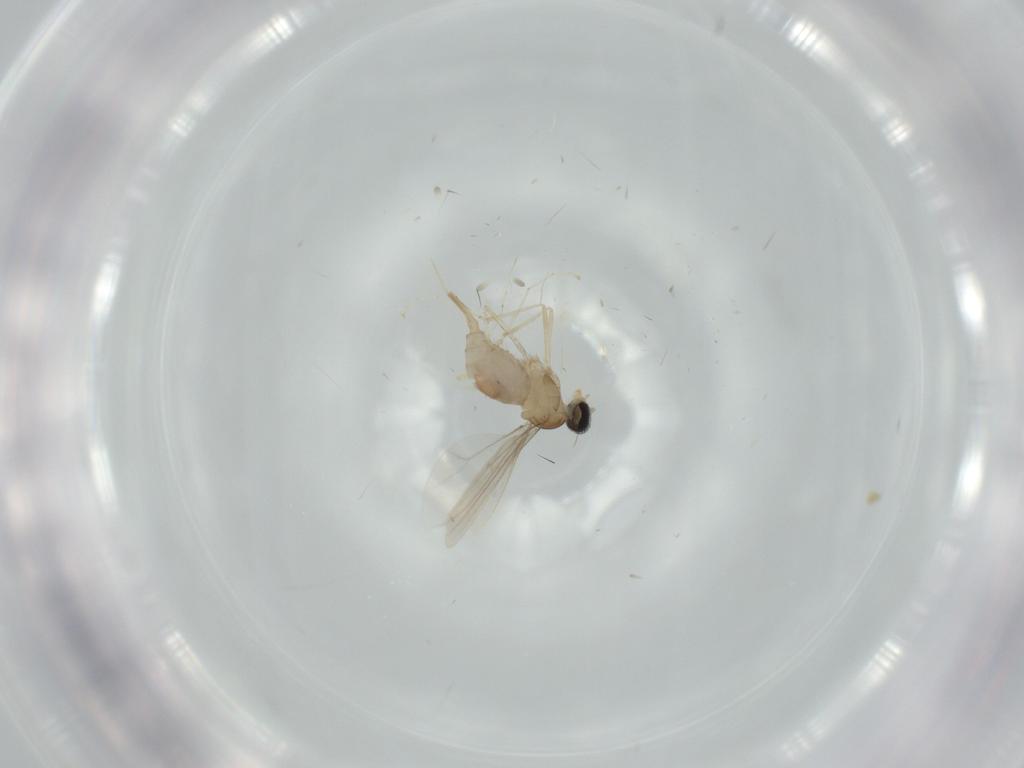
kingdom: Animalia
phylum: Arthropoda
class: Insecta
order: Diptera
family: Cecidomyiidae
